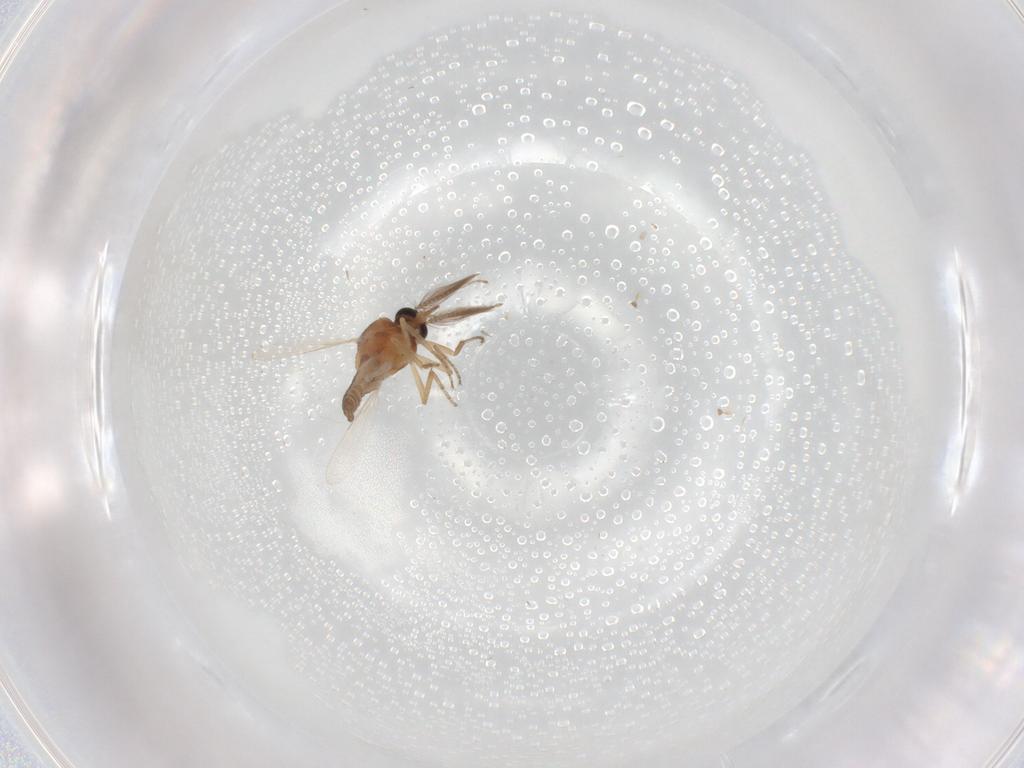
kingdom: Animalia
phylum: Arthropoda
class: Insecta
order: Diptera
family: Ceratopogonidae
